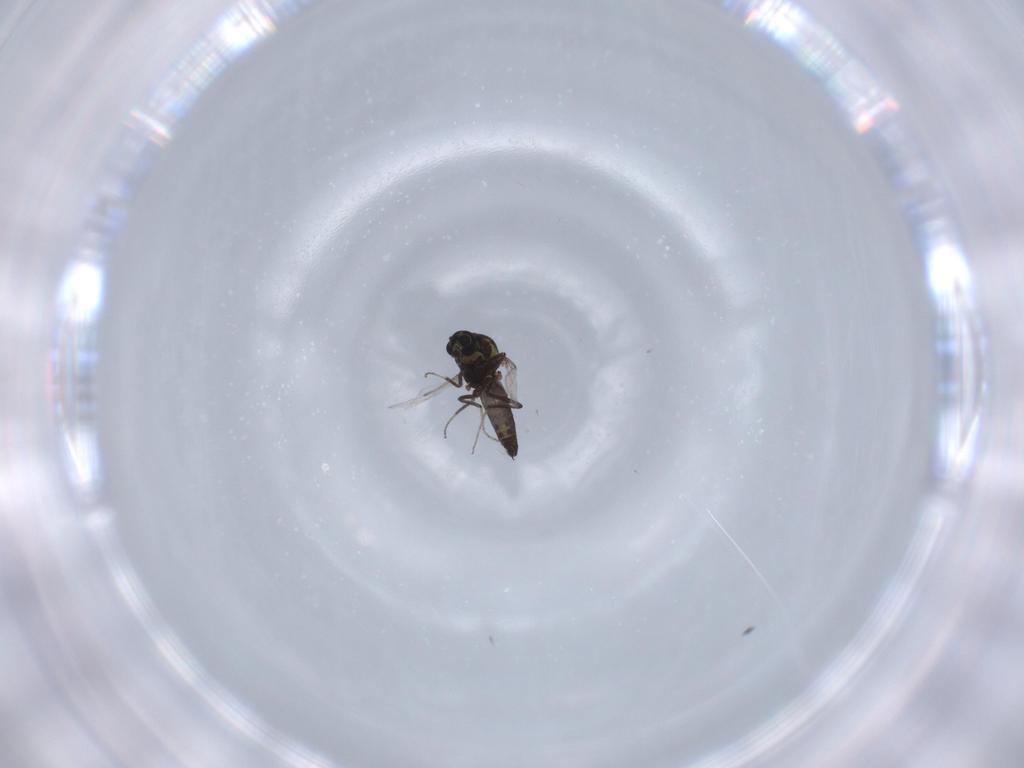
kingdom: Animalia
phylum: Arthropoda
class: Insecta
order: Diptera
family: Ceratopogonidae
